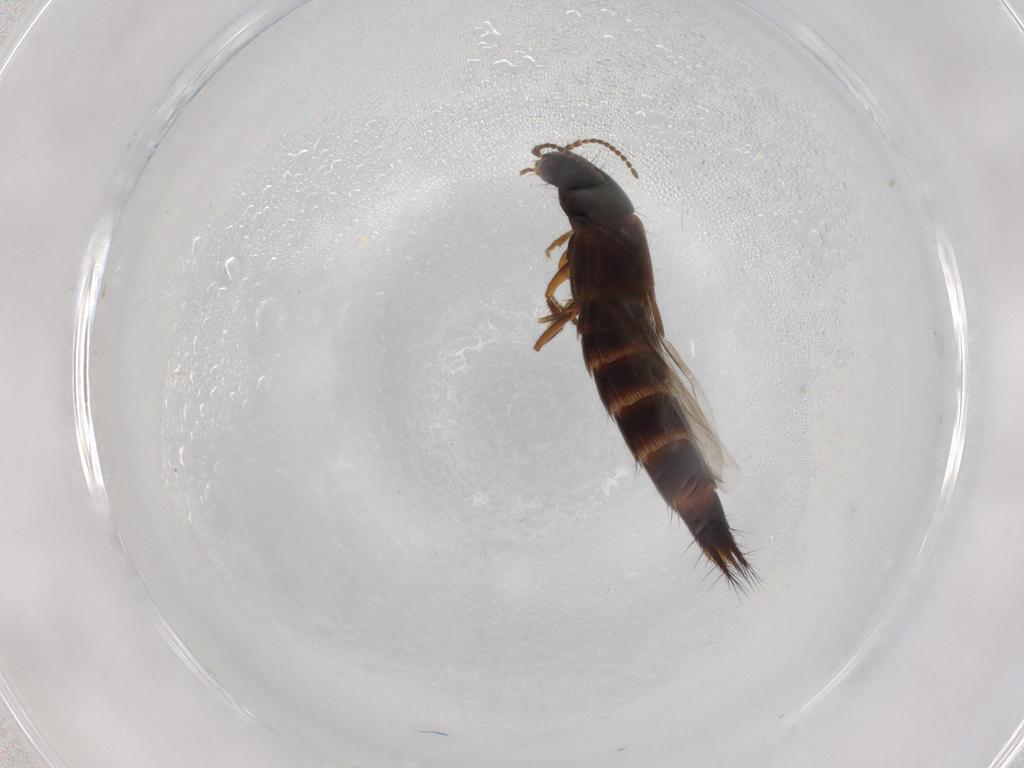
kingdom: Animalia
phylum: Arthropoda
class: Insecta
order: Coleoptera
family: Staphylinidae
